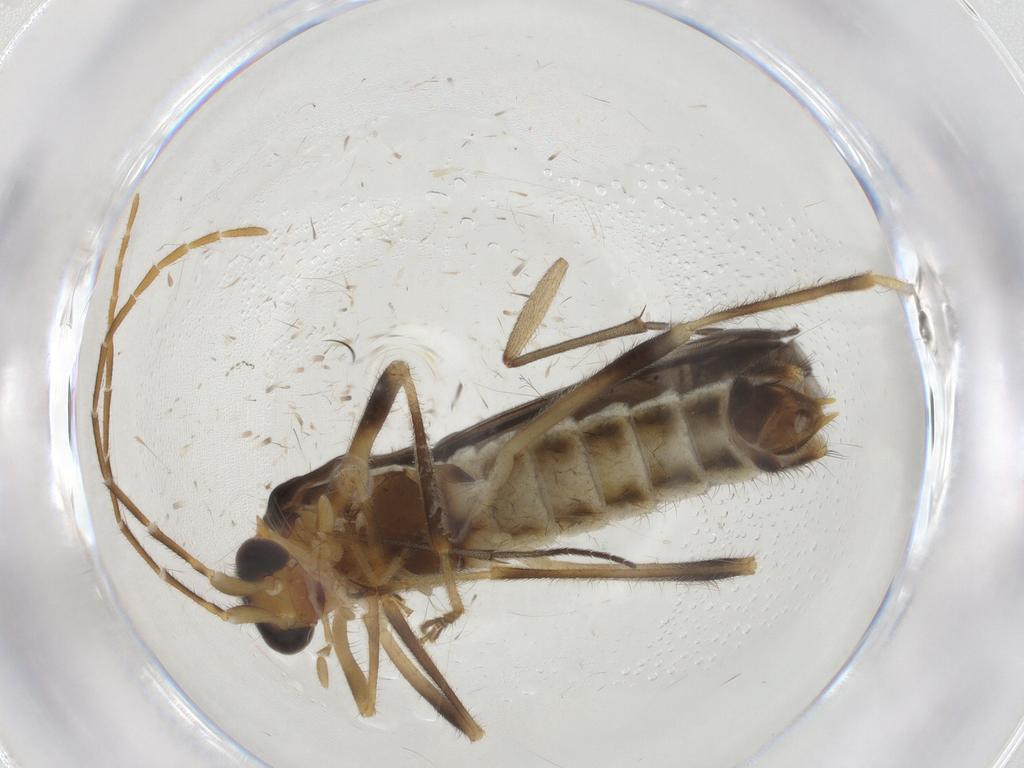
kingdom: Animalia
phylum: Arthropoda
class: Insecta
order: Coleoptera
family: Cantharidae
